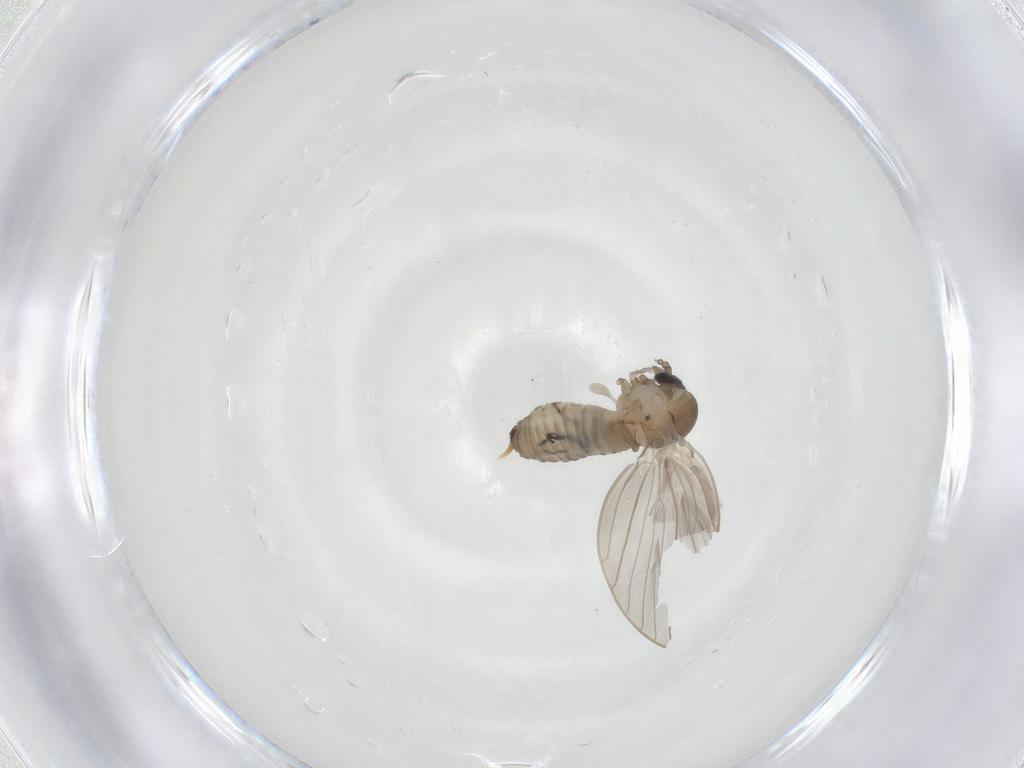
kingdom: Animalia
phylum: Arthropoda
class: Insecta
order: Diptera
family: Psychodidae
